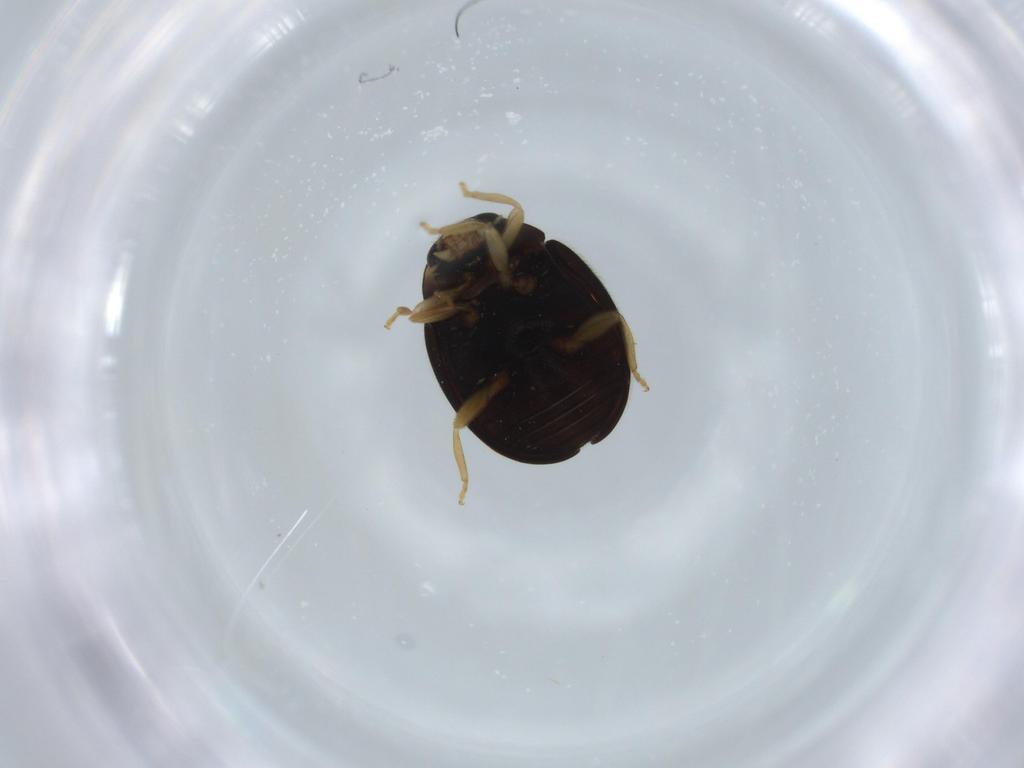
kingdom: Animalia
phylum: Arthropoda
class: Insecta
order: Coleoptera
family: Coccinellidae
